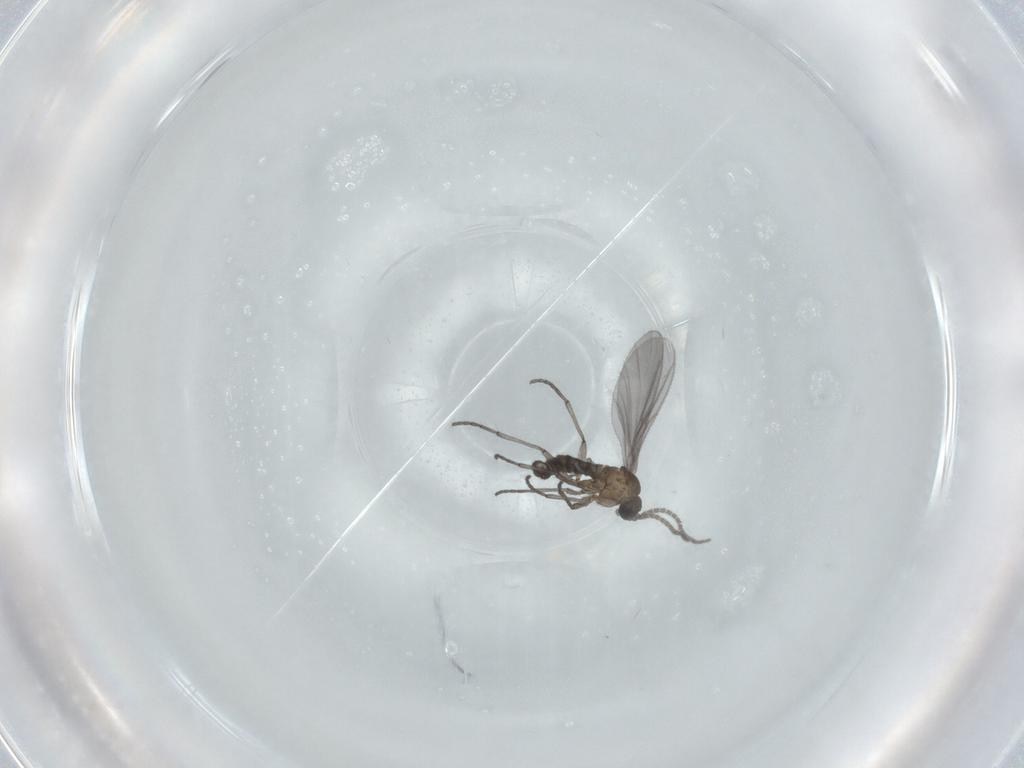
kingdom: Animalia
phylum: Arthropoda
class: Insecta
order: Diptera
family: Sciaridae
